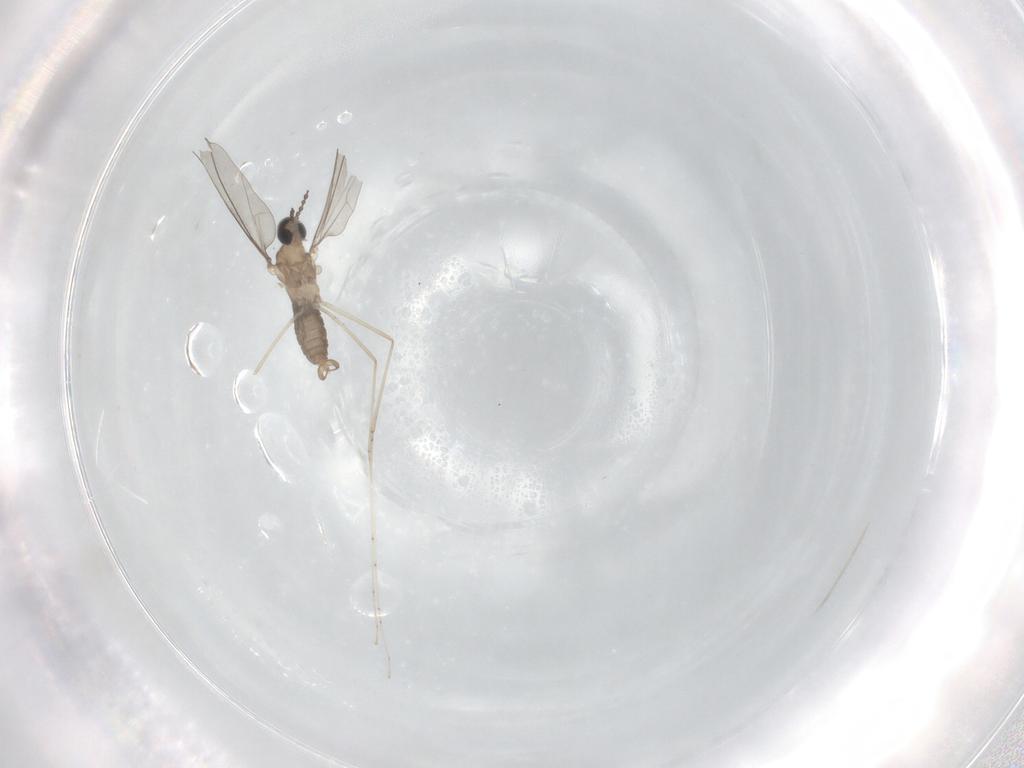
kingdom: Animalia
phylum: Arthropoda
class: Insecta
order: Diptera
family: Cecidomyiidae
